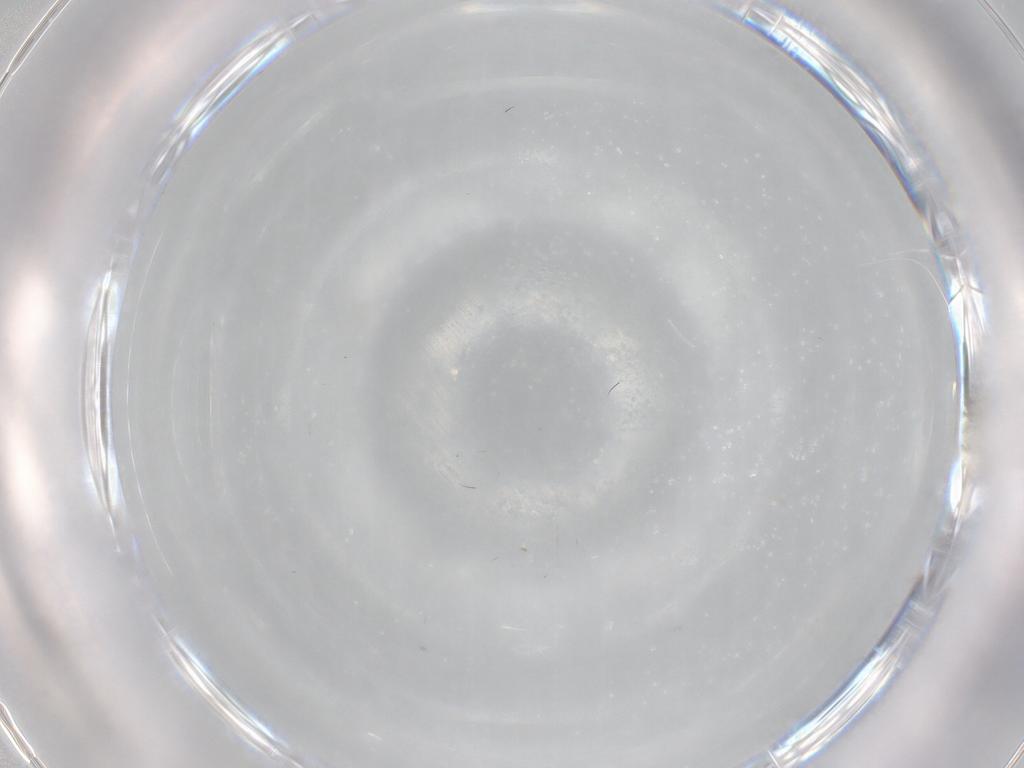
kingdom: Animalia
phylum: Arthropoda
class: Insecta
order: Diptera
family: Cecidomyiidae
